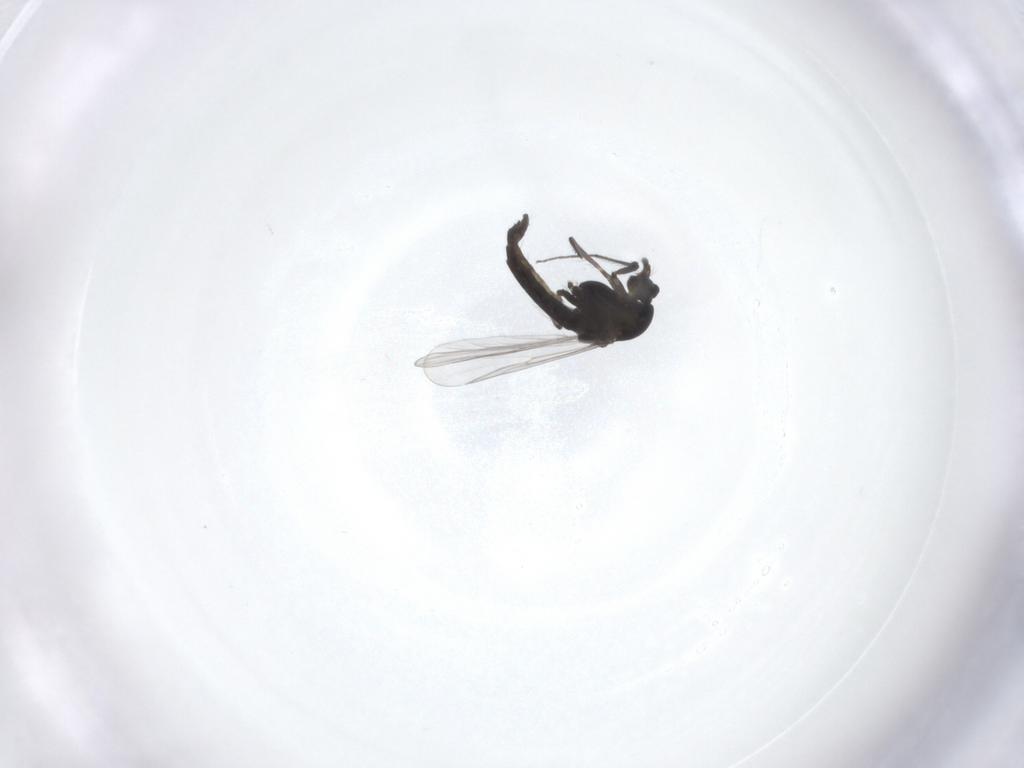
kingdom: Animalia
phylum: Arthropoda
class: Insecta
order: Diptera
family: Chironomidae
